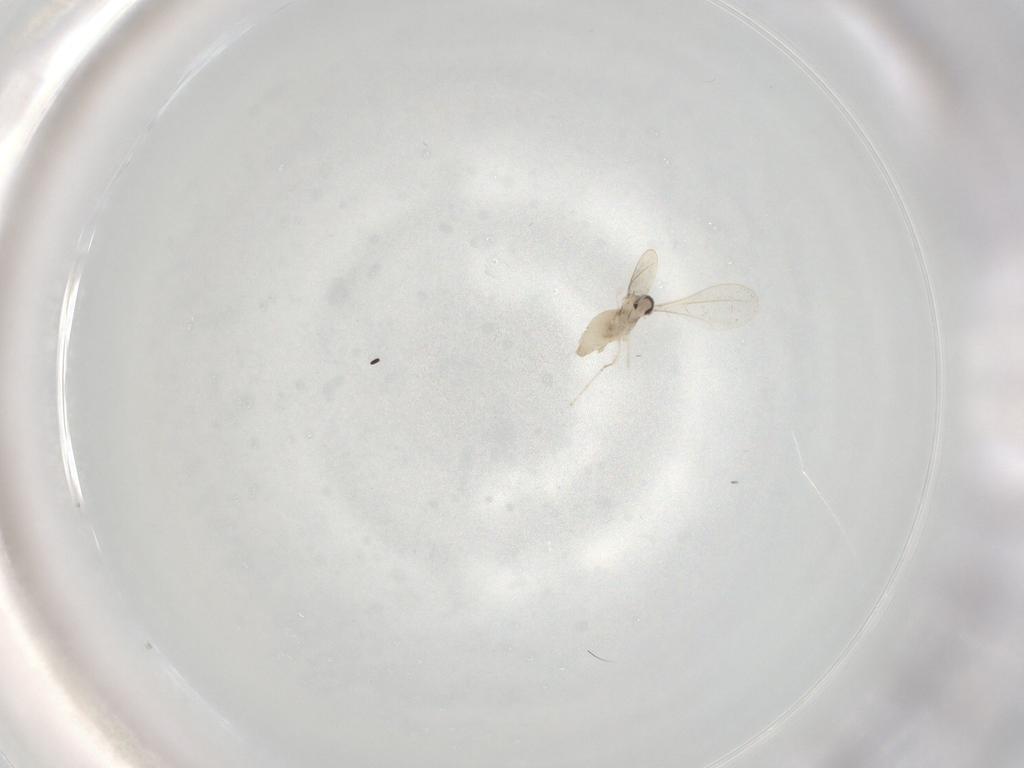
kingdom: Animalia
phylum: Arthropoda
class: Insecta
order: Diptera
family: Cecidomyiidae
